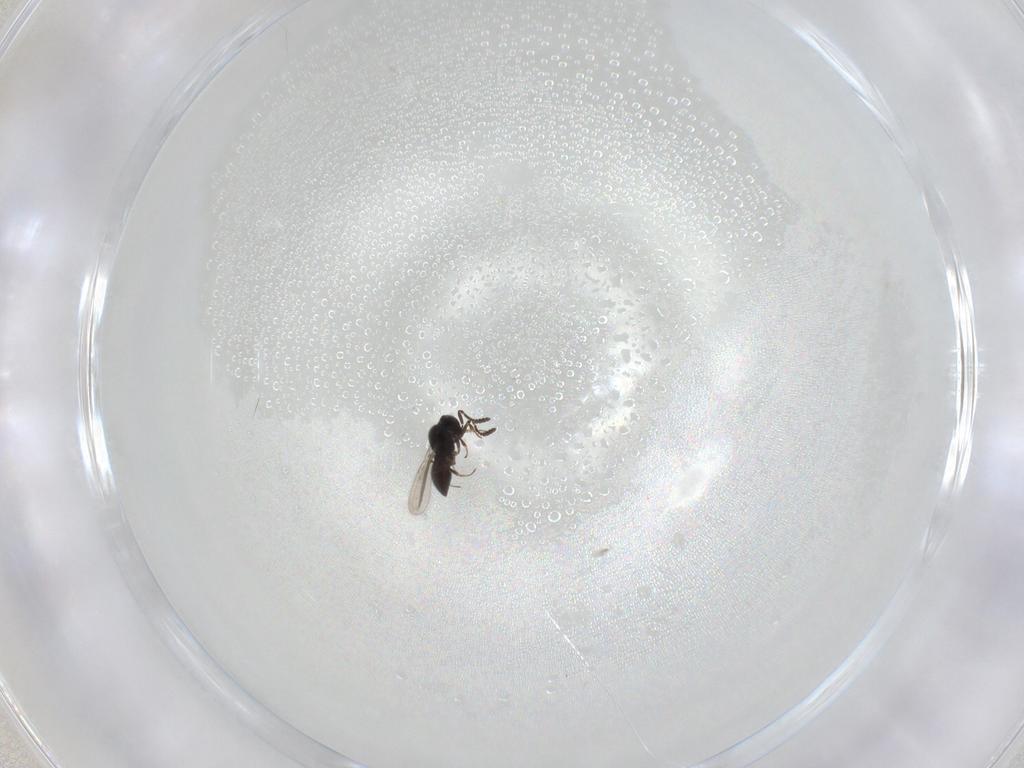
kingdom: Animalia
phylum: Arthropoda
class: Insecta
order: Hymenoptera
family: Scelionidae
